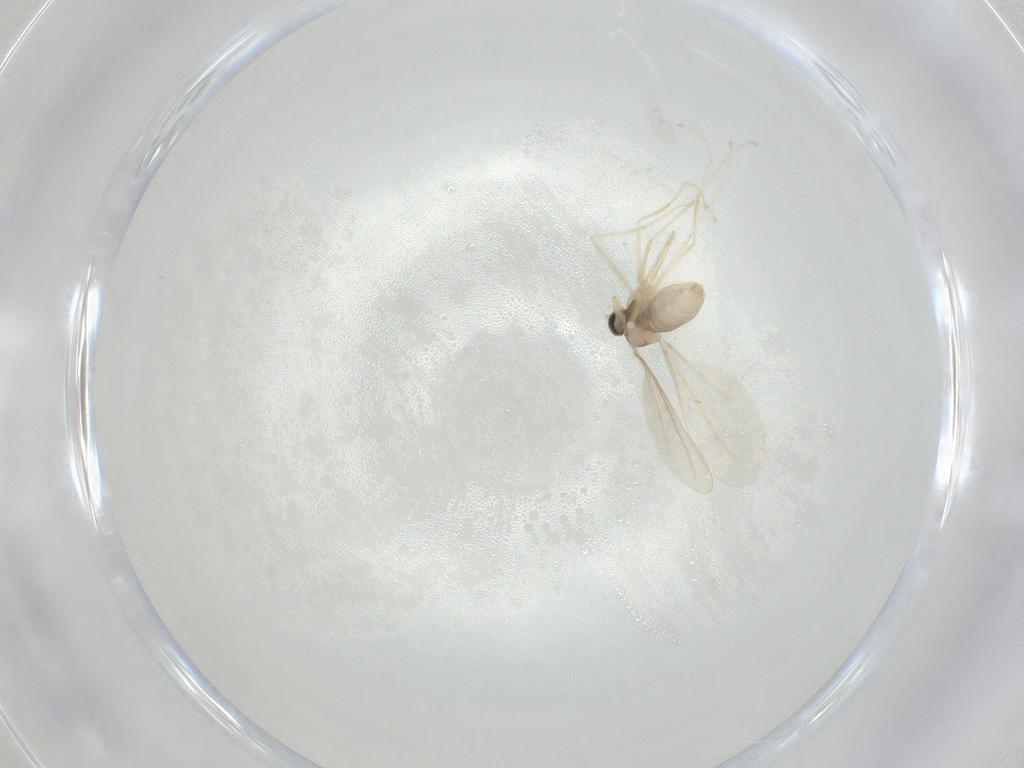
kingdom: Animalia
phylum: Arthropoda
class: Insecta
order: Diptera
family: Cecidomyiidae
